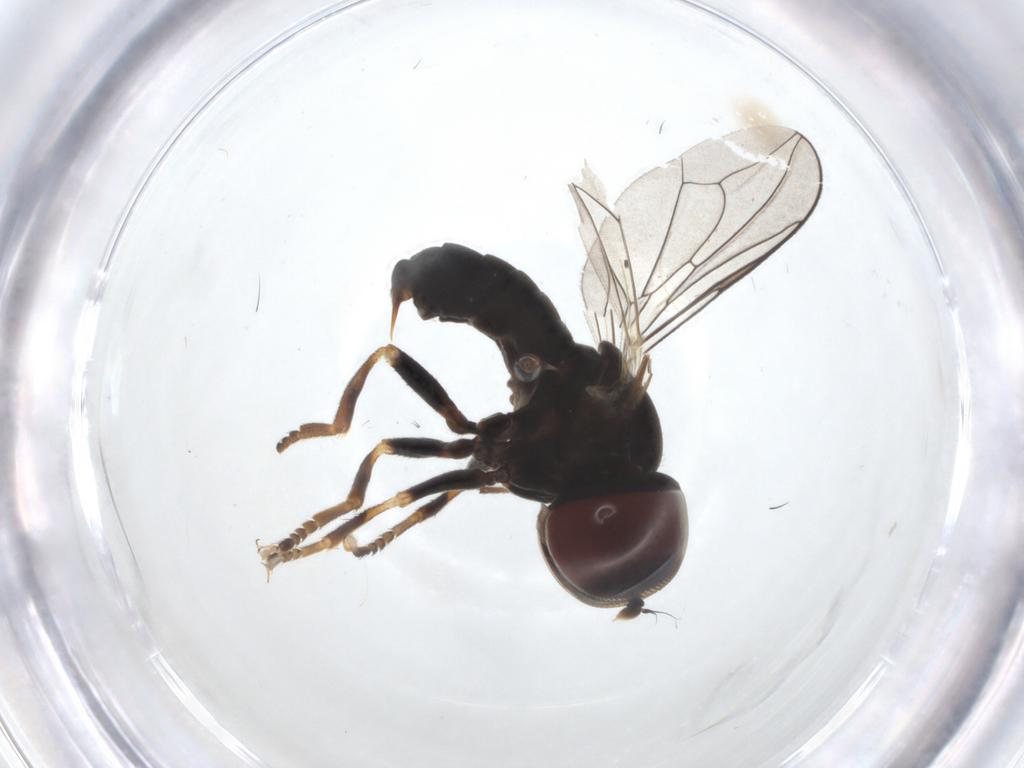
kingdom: Animalia
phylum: Arthropoda
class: Insecta
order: Diptera
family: Pipunculidae
